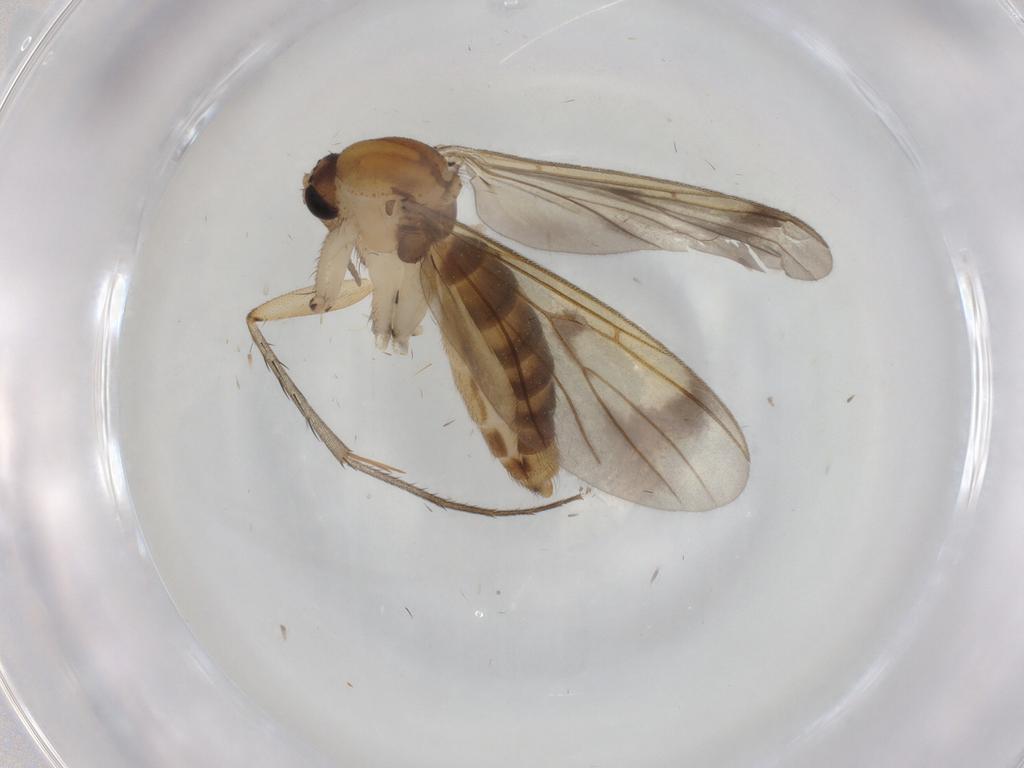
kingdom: Animalia
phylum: Arthropoda
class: Insecta
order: Diptera
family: Mycetophilidae
